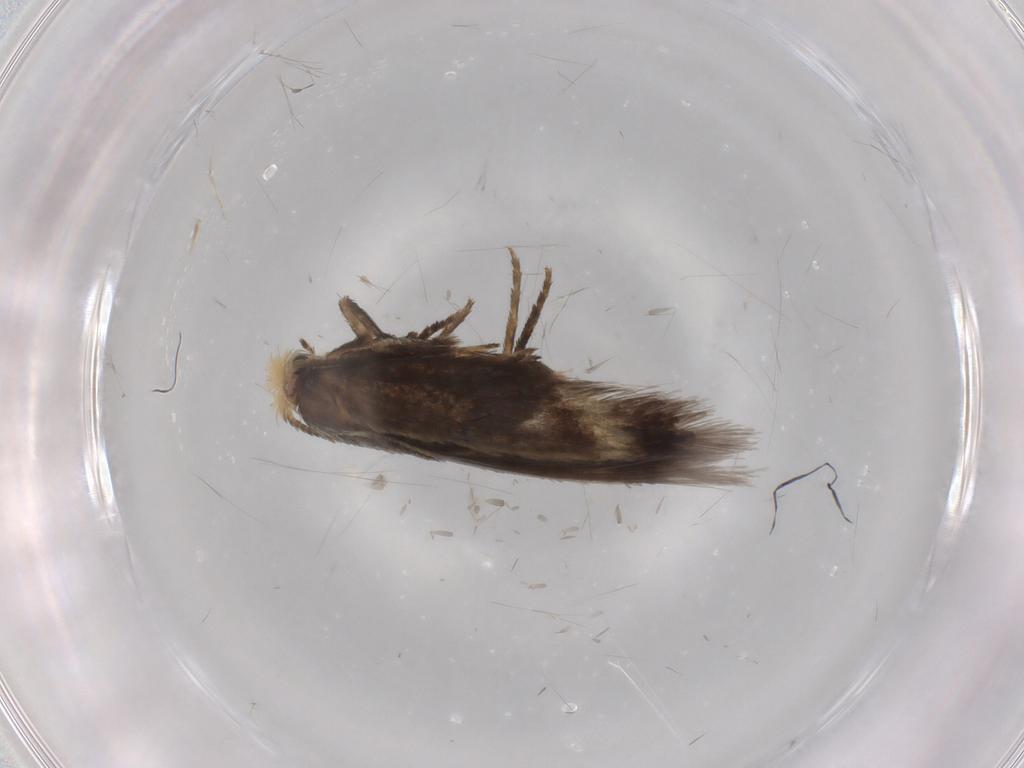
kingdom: Animalia
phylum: Arthropoda
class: Insecta
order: Lepidoptera
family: Nepticulidae
